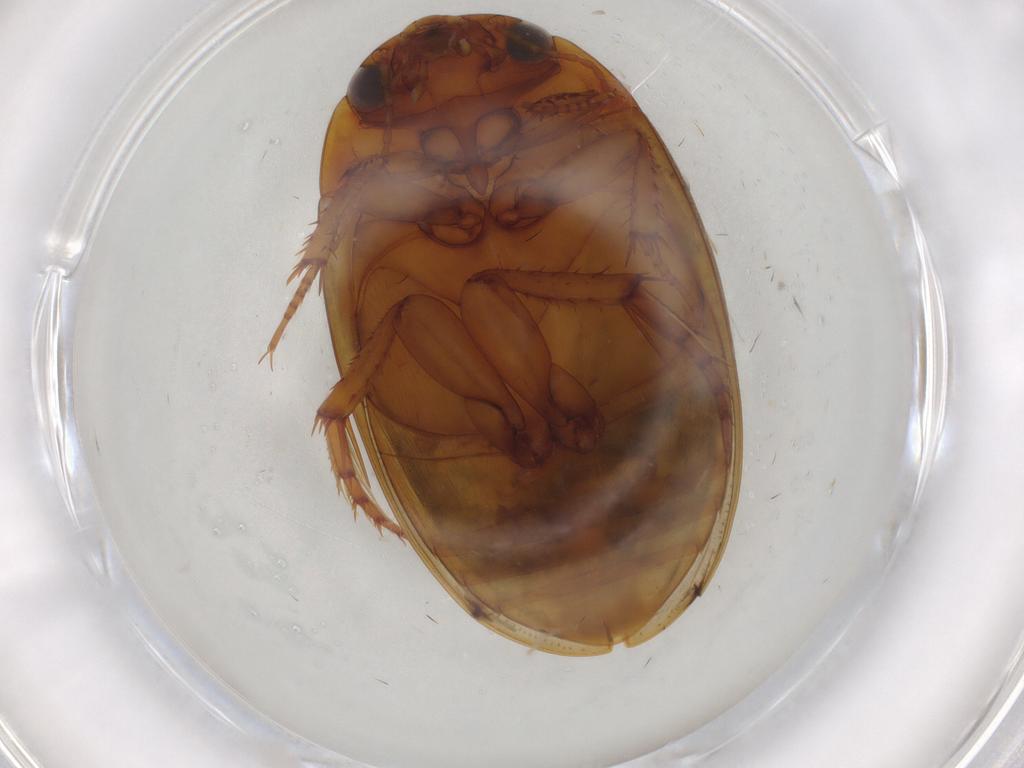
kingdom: Animalia
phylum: Arthropoda
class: Insecta
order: Coleoptera
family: Dytiscidae
